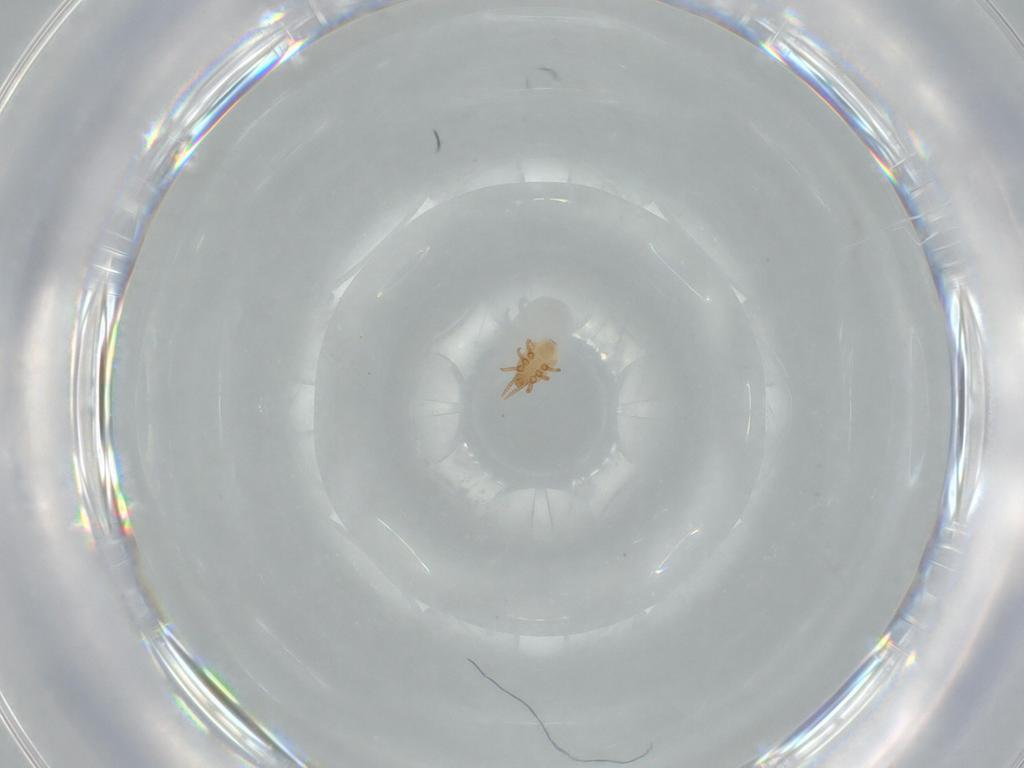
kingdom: Animalia
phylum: Arthropoda
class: Arachnida
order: Mesostigmata
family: Dinychidae
